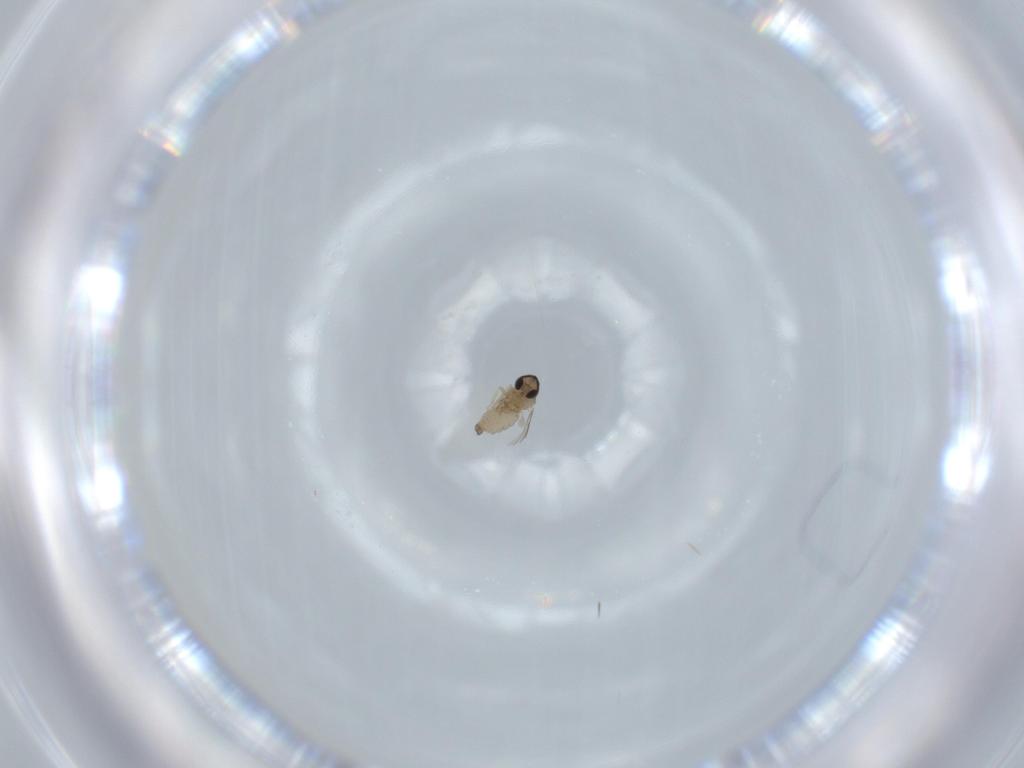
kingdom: Animalia
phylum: Arthropoda
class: Insecta
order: Diptera
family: Cecidomyiidae
